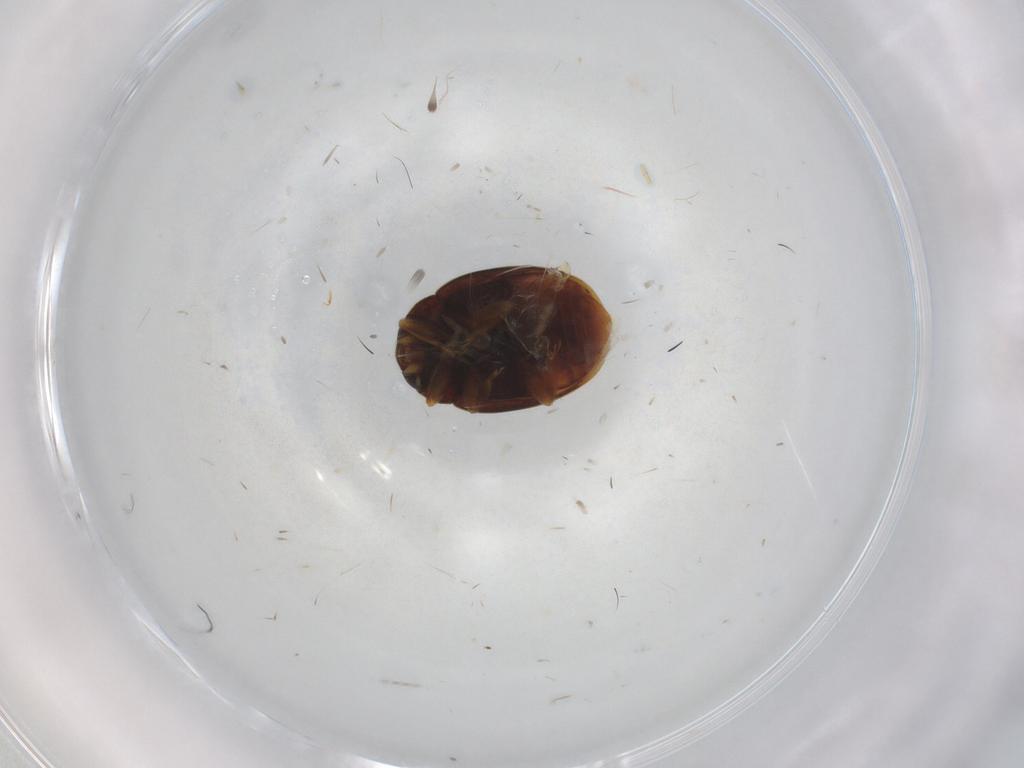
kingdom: Animalia
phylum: Arthropoda
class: Insecta
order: Coleoptera
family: Coccinellidae
